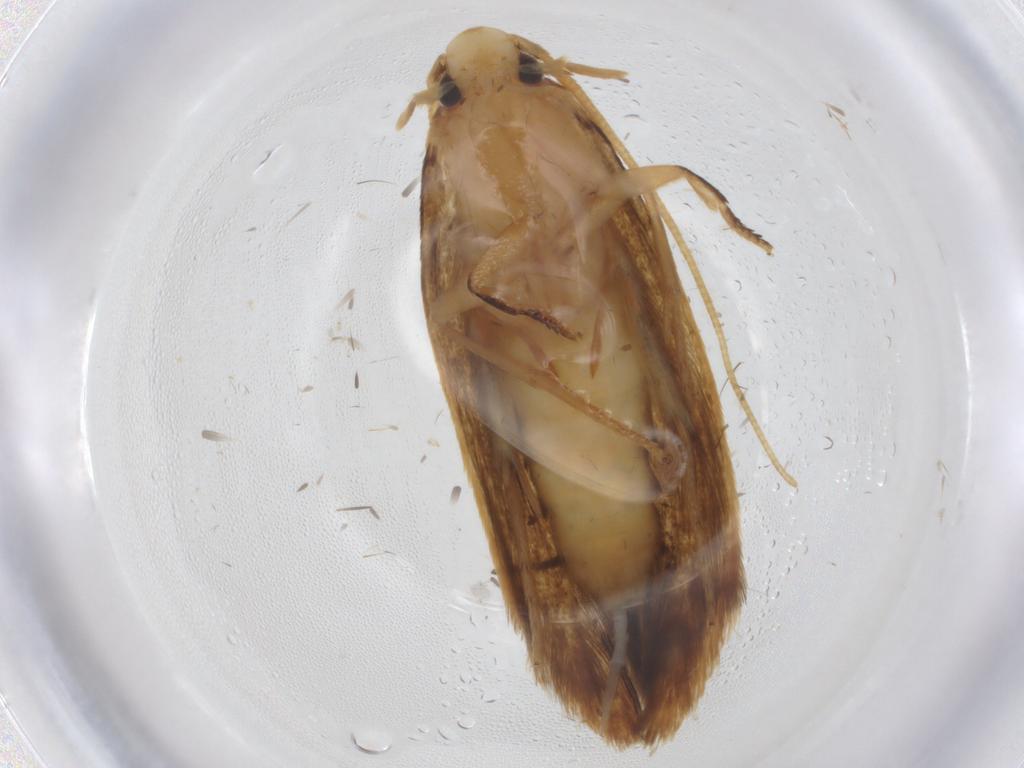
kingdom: Animalia
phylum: Arthropoda
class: Insecta
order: Lepidoptera
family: Tineidae
